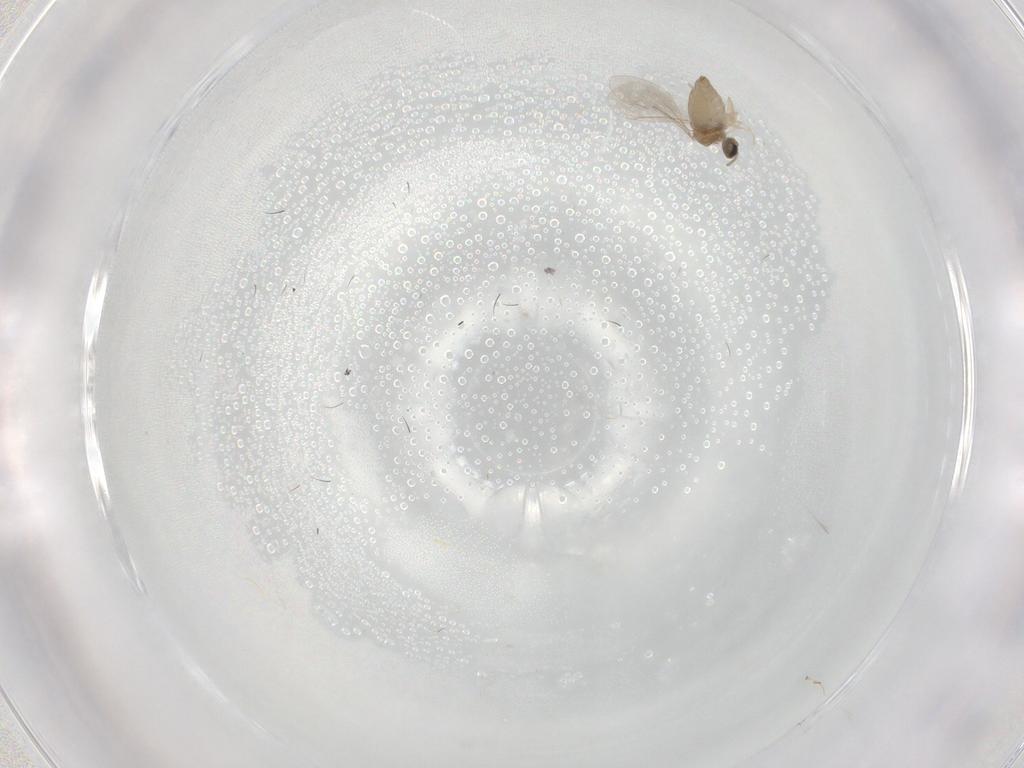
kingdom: Animalia
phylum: Arthropoda
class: Insecta
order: Diptera
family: Cecidomyiidae
